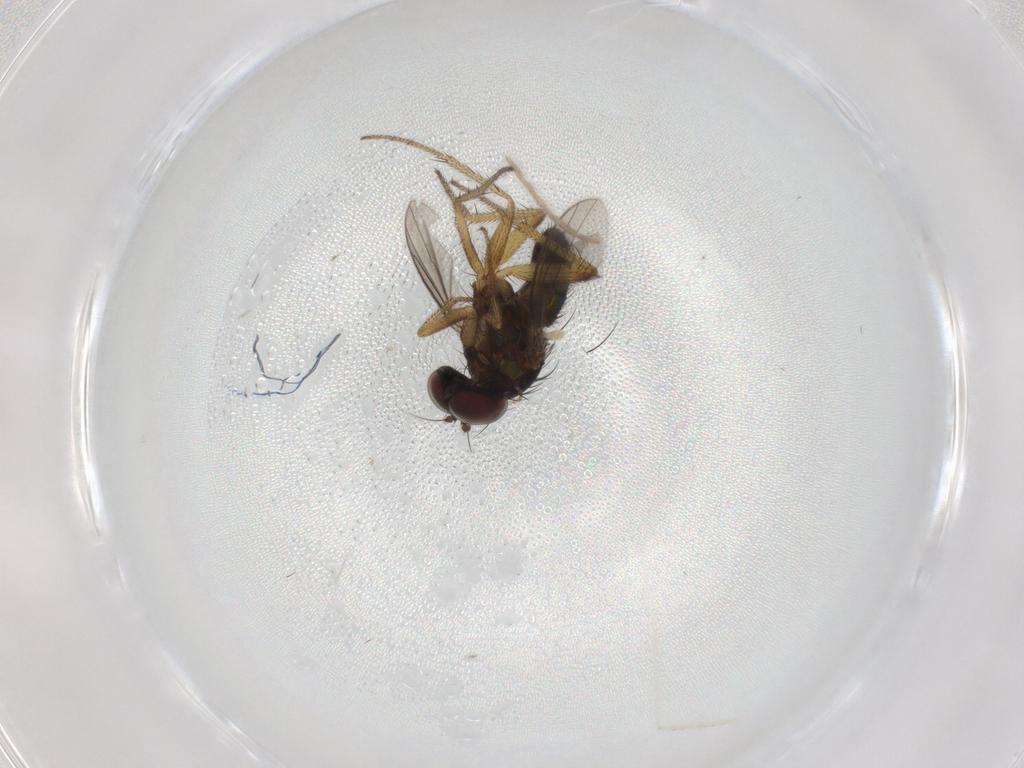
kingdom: Animalia
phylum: Arthropoda
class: Insecta
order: Diptera
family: Dolichopodidae
